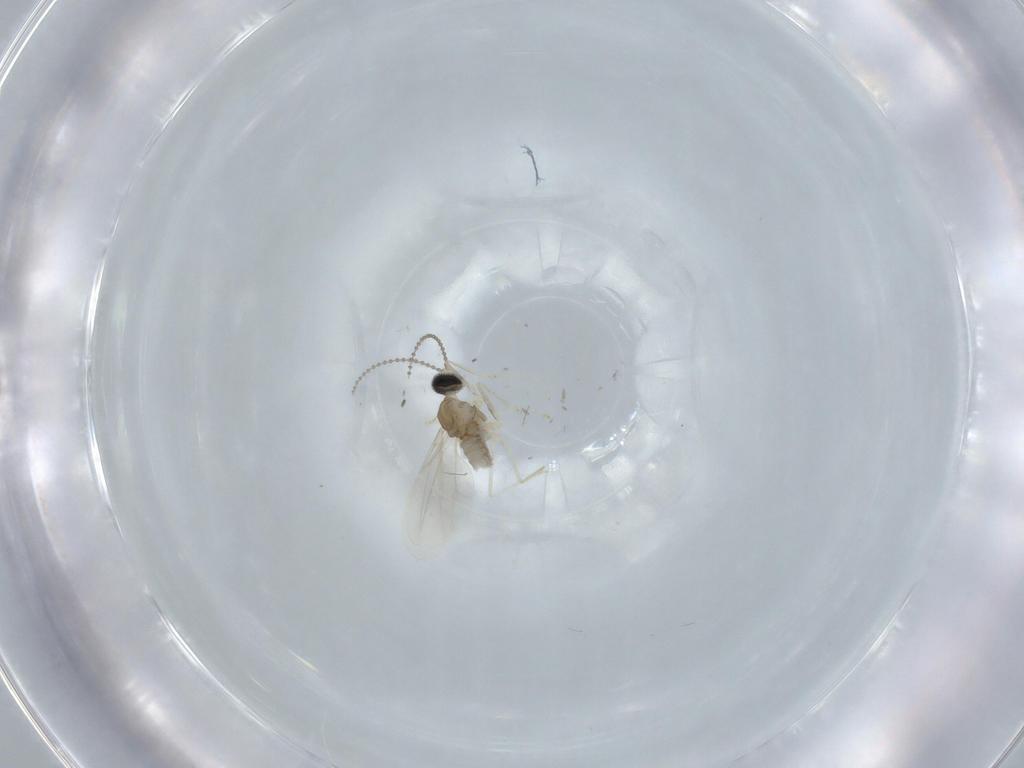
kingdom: Animalia
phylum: Arthropoda
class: Insecta
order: Diptera
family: Cecidomyiidae
